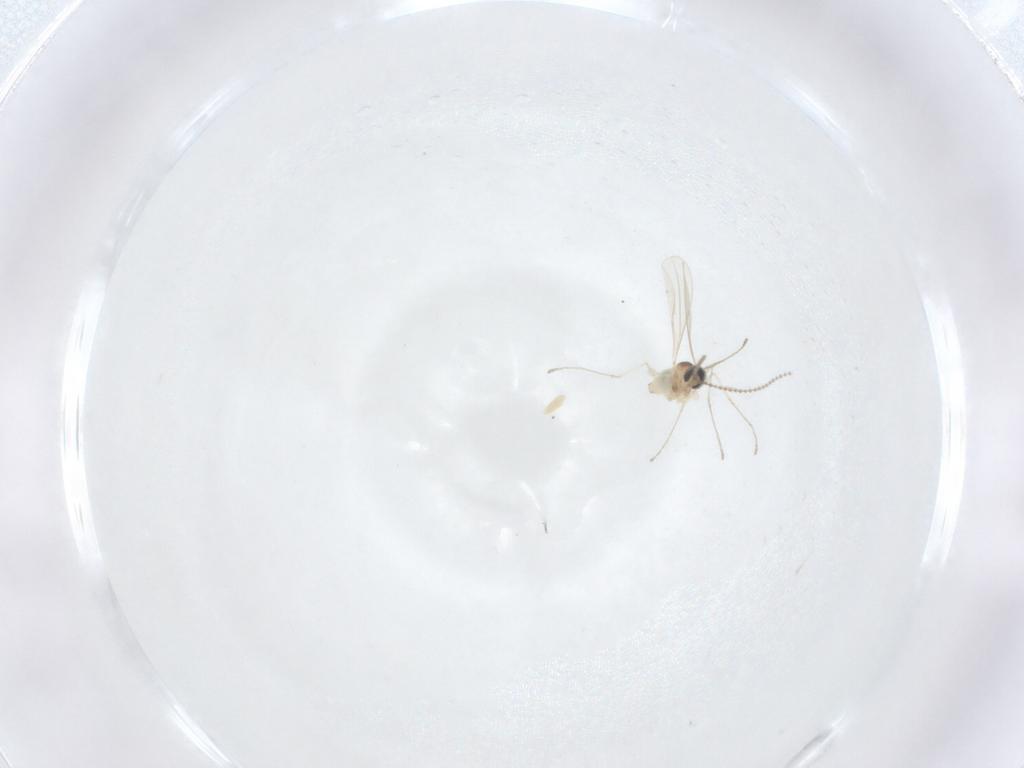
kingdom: Animalia
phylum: Arthropoda
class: Insecta
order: Diptera
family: Cecidomyiidae
